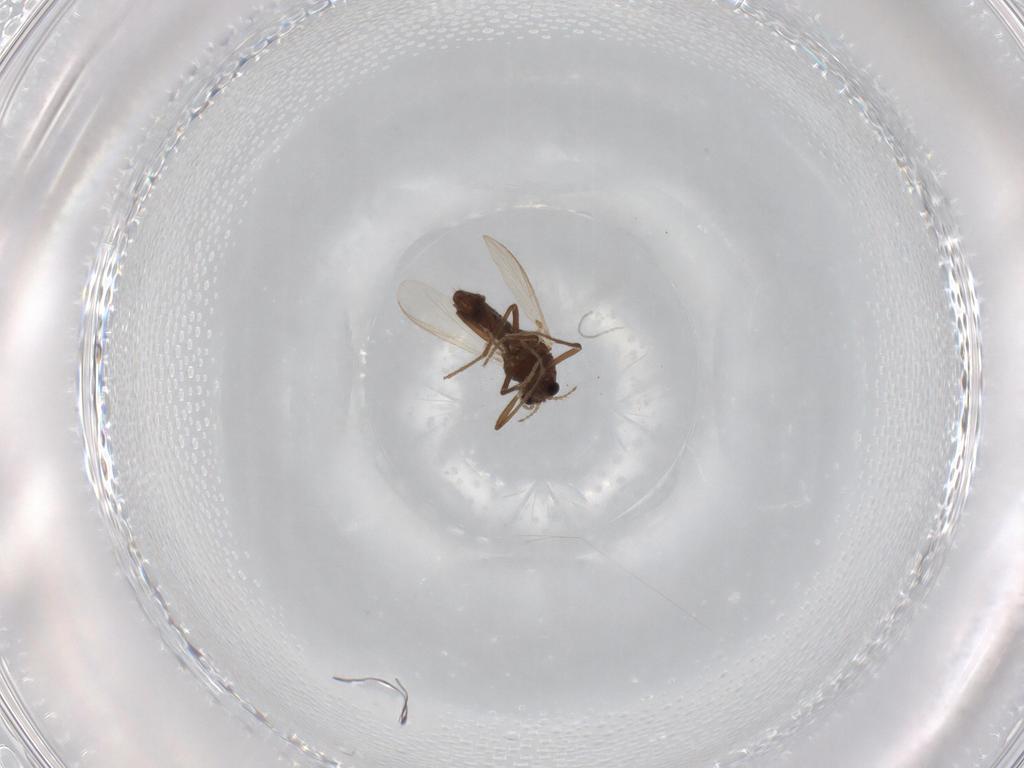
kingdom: Animalia
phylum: Arthropoda
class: Insecta
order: Diptera
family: Chironomidae
